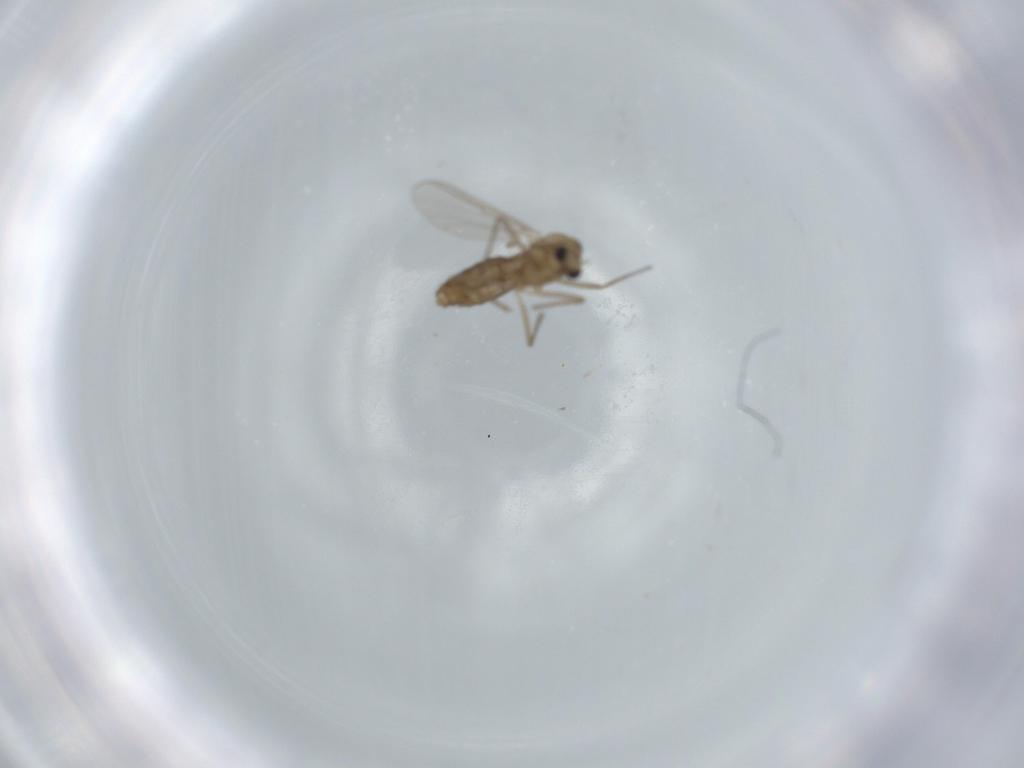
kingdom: Animalia
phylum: Arthropoda
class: Insecta
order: Diptera
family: Chironomidae
